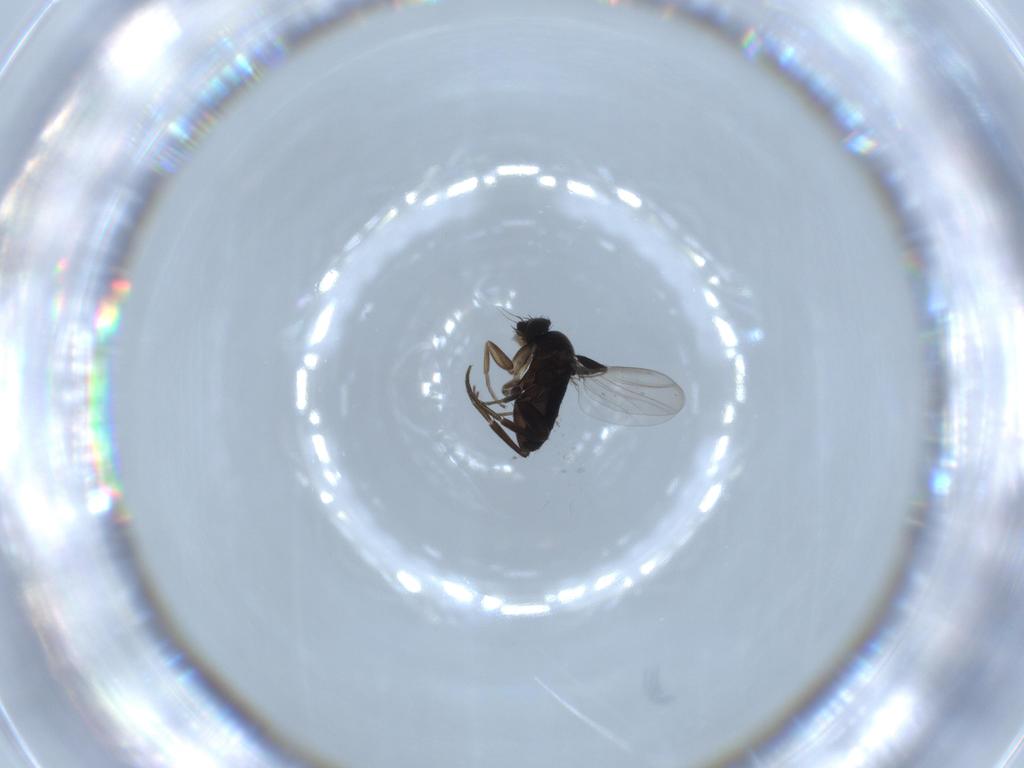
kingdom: Animalia
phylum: Arthropoda
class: Insecta
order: Diptera
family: Phoridae
